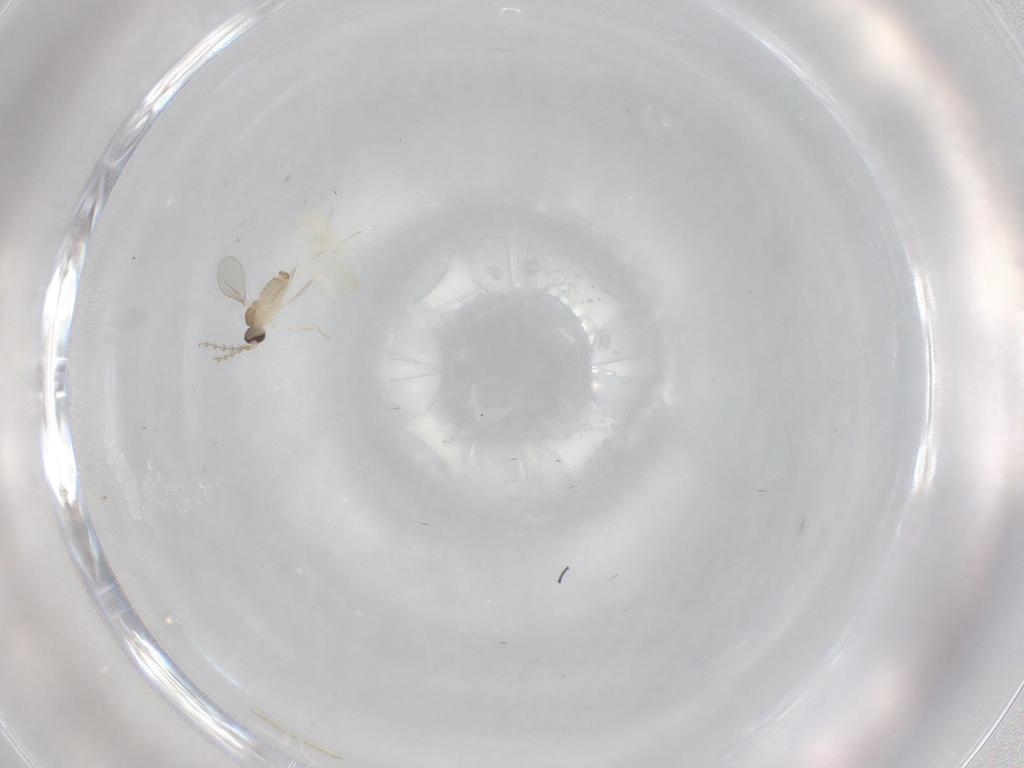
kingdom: Animalia
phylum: Arthropoda
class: Insecta
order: Diptera
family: Cecidomyiidae
